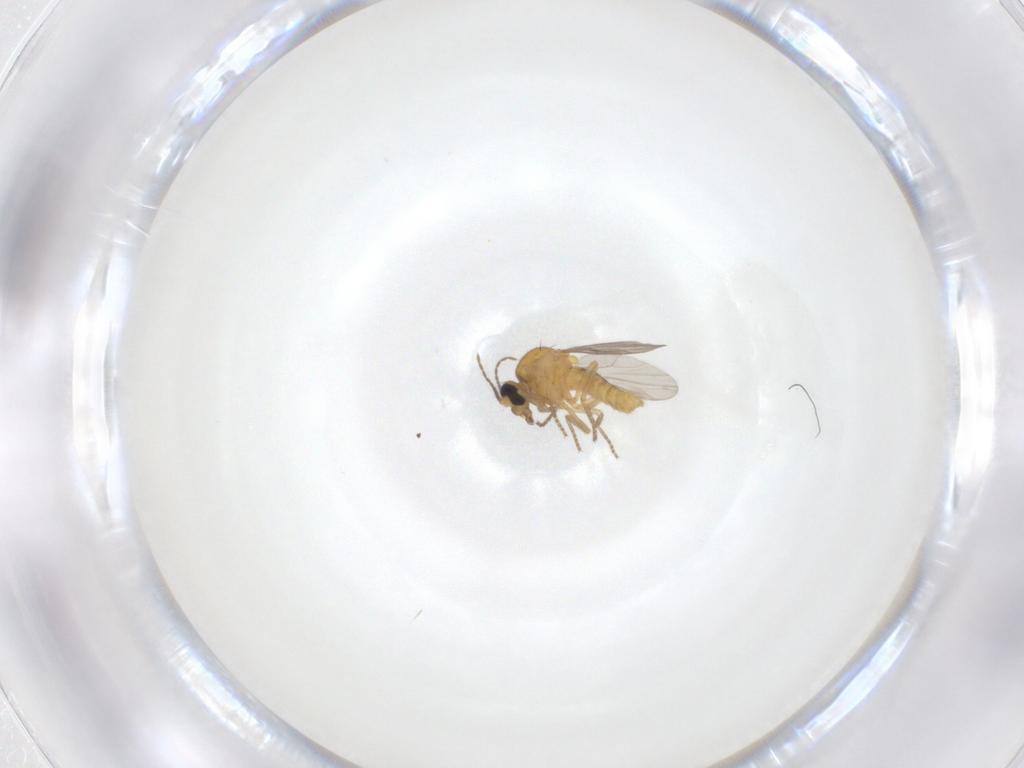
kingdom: Animalia
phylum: Arthropoda
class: Insecta
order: Diptera
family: Ceratopogonidae
